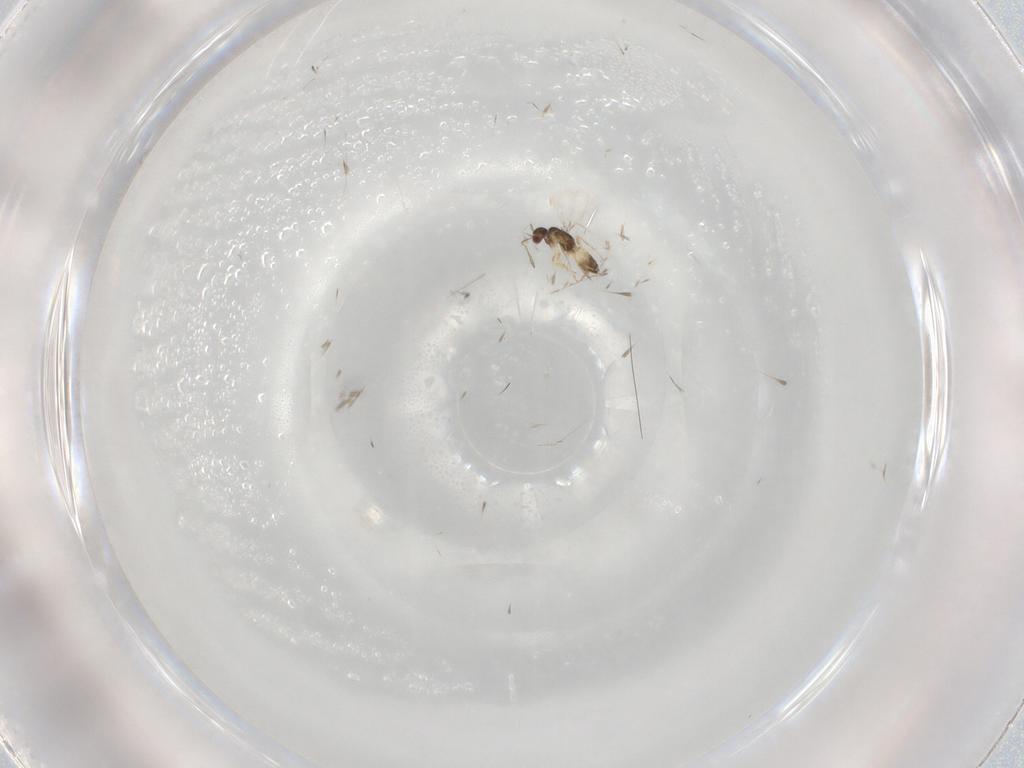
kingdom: Animalia
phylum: Arthropoda
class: Insecta
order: Hymenoptera
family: Mymaridae
